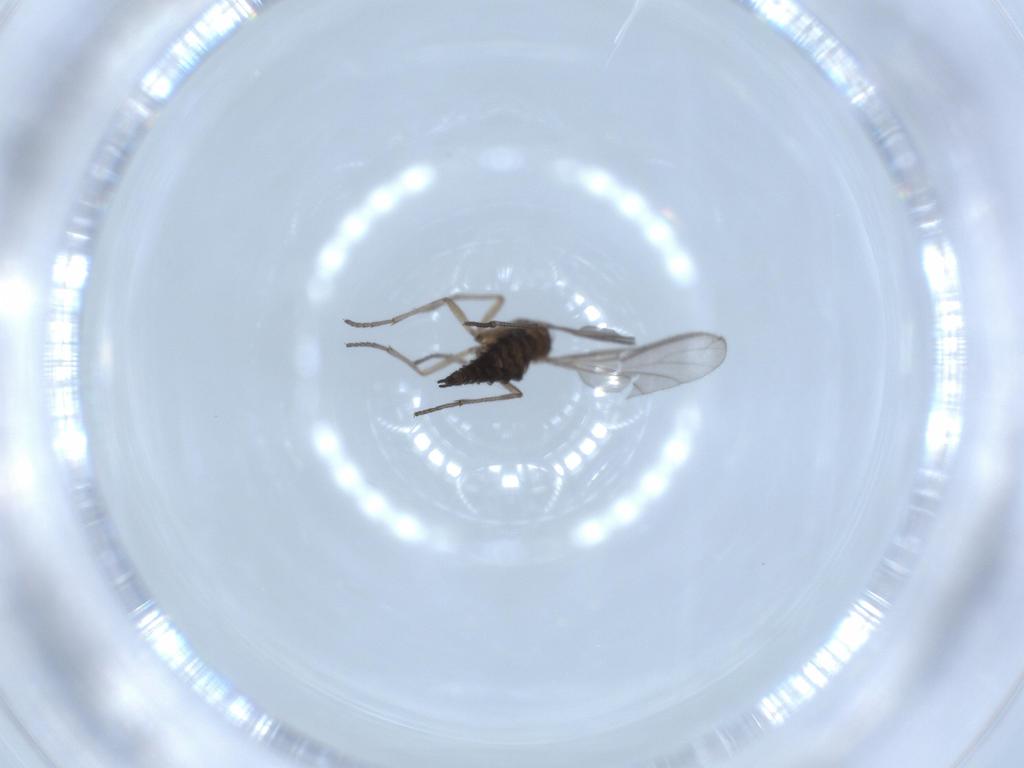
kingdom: Animalia
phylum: Arthropoda
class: Insecta
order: Diptera
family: Sciaridae
